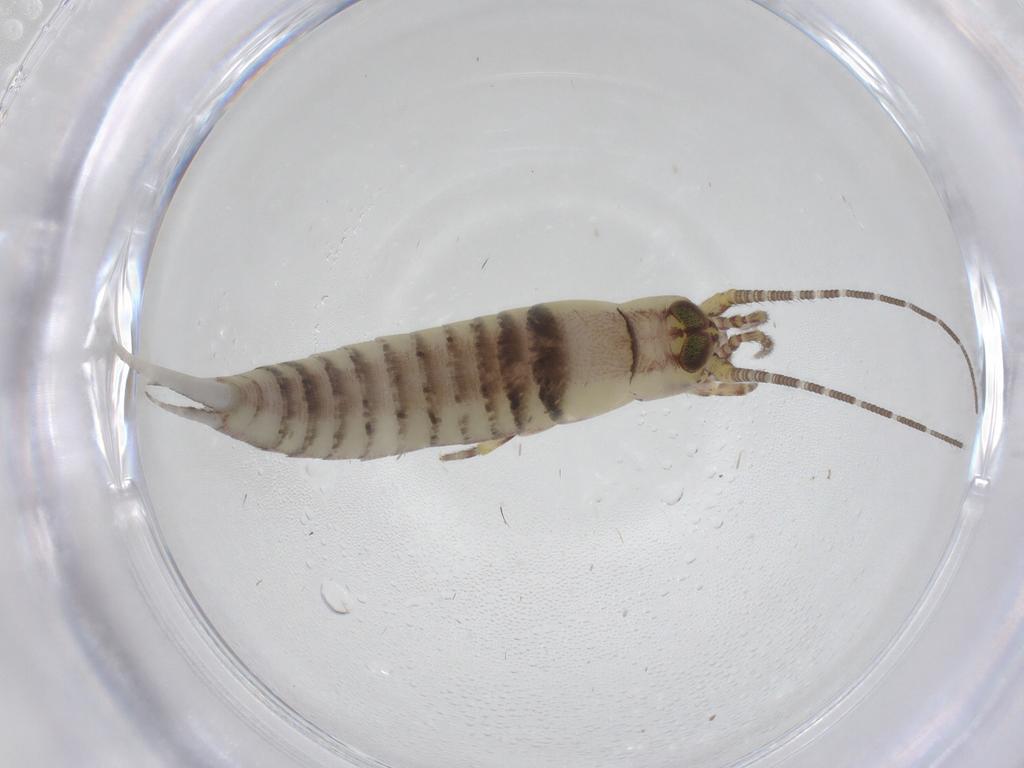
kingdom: Animalia
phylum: Arthropoda
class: Insecta
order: Archaeognatha
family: Meinertellidae
